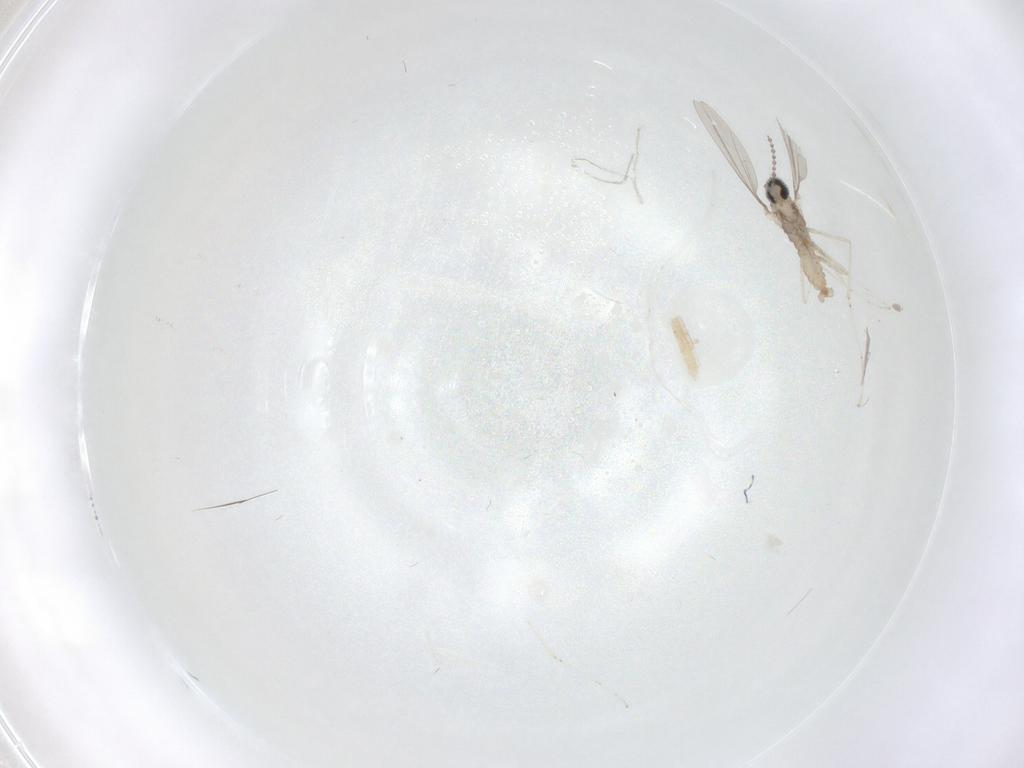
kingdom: Animalia
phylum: Arthropoda
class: Insecta
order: Diptera
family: Cecidomyiidae
